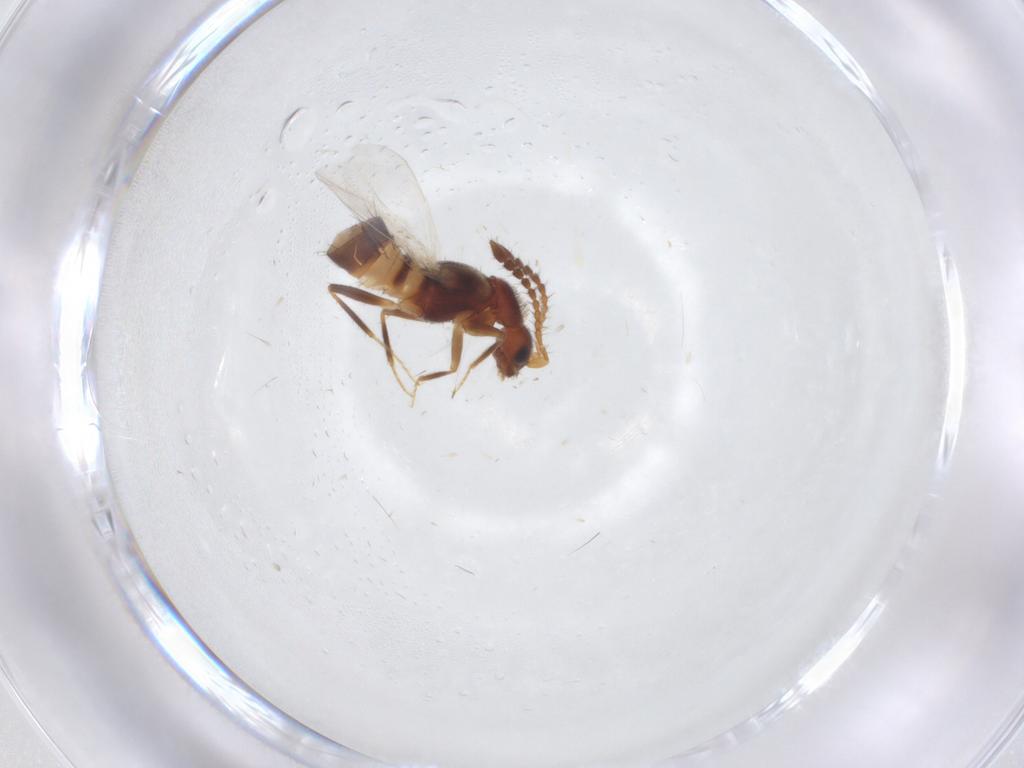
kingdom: Animalia
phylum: Arthropoda
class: Insecta
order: Coleoptera
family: Staphylinidae
